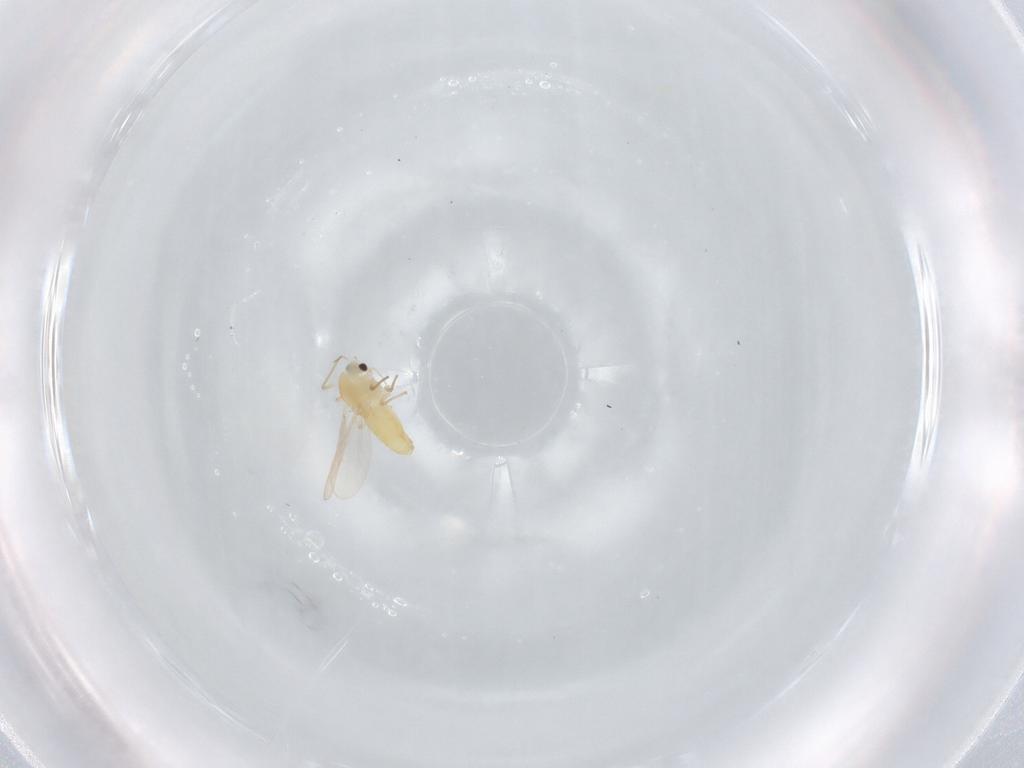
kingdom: Animalia
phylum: Arthropoda
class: Insecta
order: Diptera
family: Chironomidae
